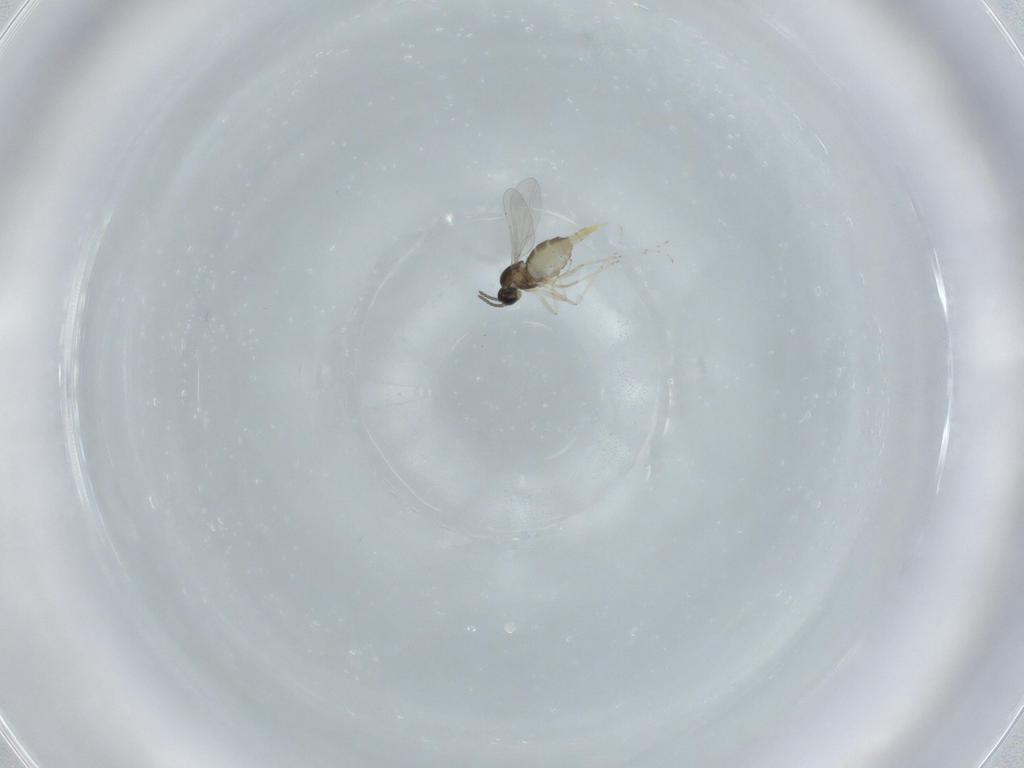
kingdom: Animalia
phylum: Arthropoda
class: Insecta
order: Diptera
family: Cecidomyiidae
